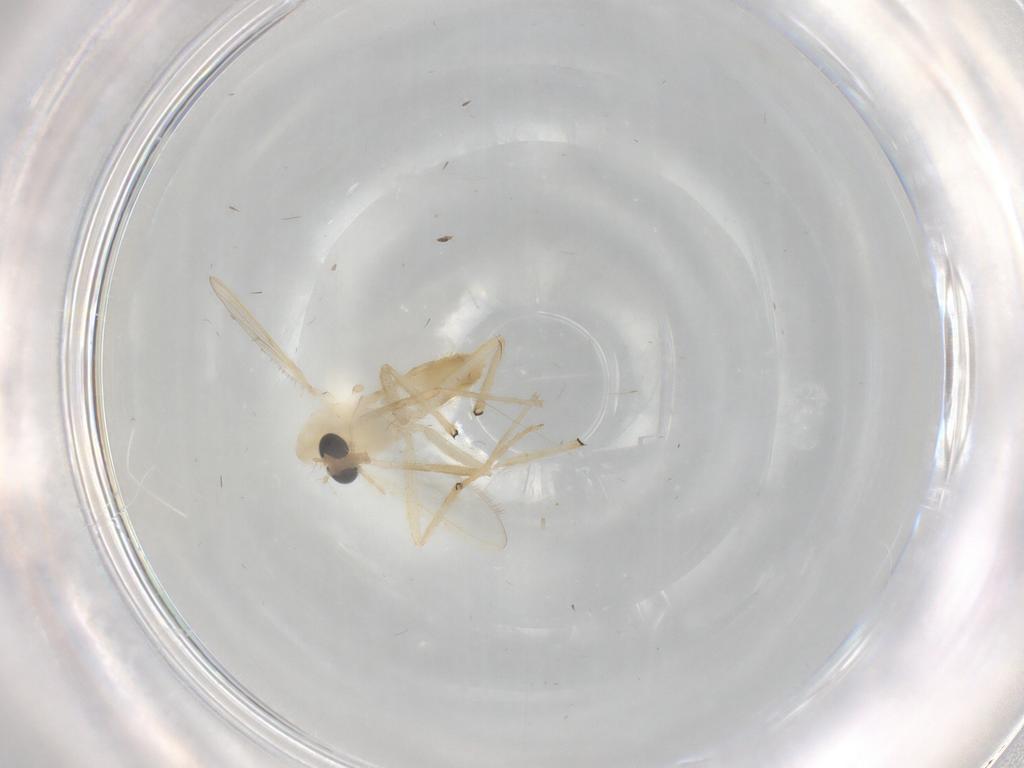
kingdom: Animalia
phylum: Arthropoda
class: Insecta
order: Diptera
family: Chironomidae
